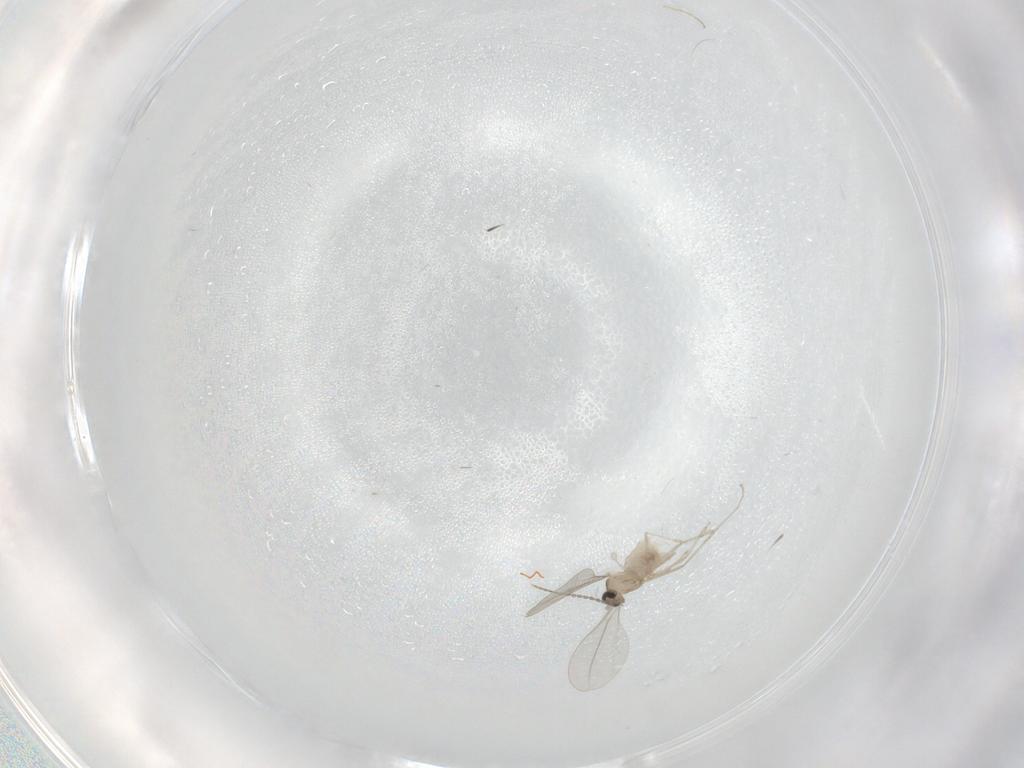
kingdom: Animalia
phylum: Arthropoda
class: Insecta
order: Diptera
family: Cecidomyiidae
